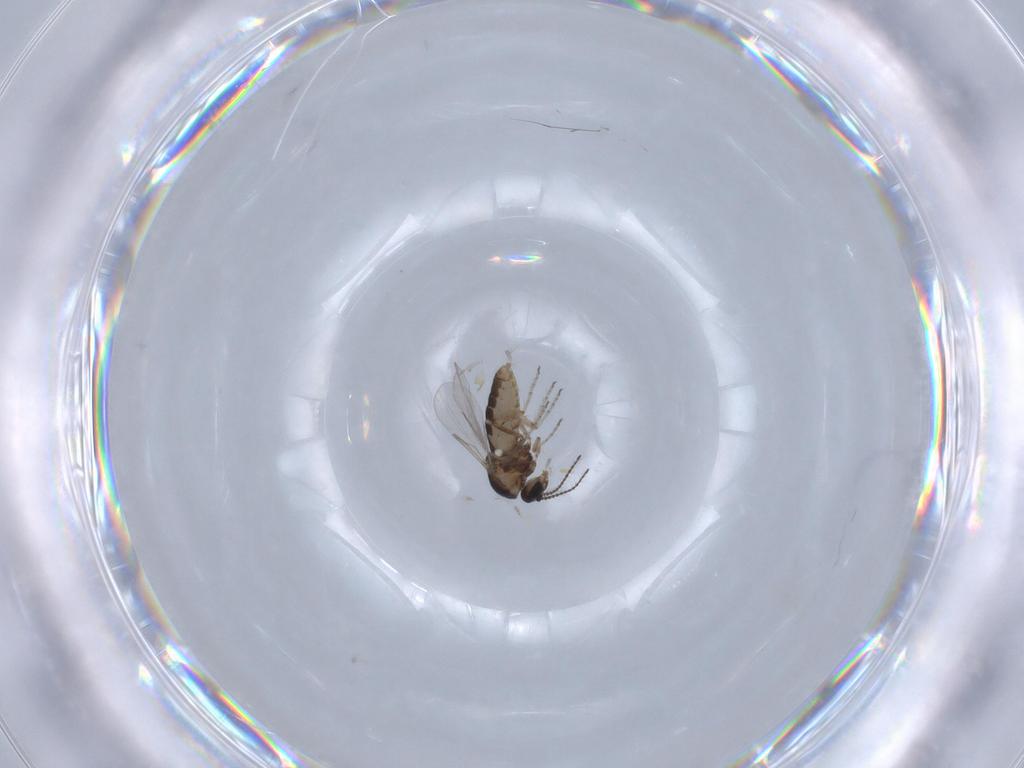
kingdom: Animalia
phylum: Arthropoda
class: Insecta
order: Diptera
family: Ceratopogonidae
